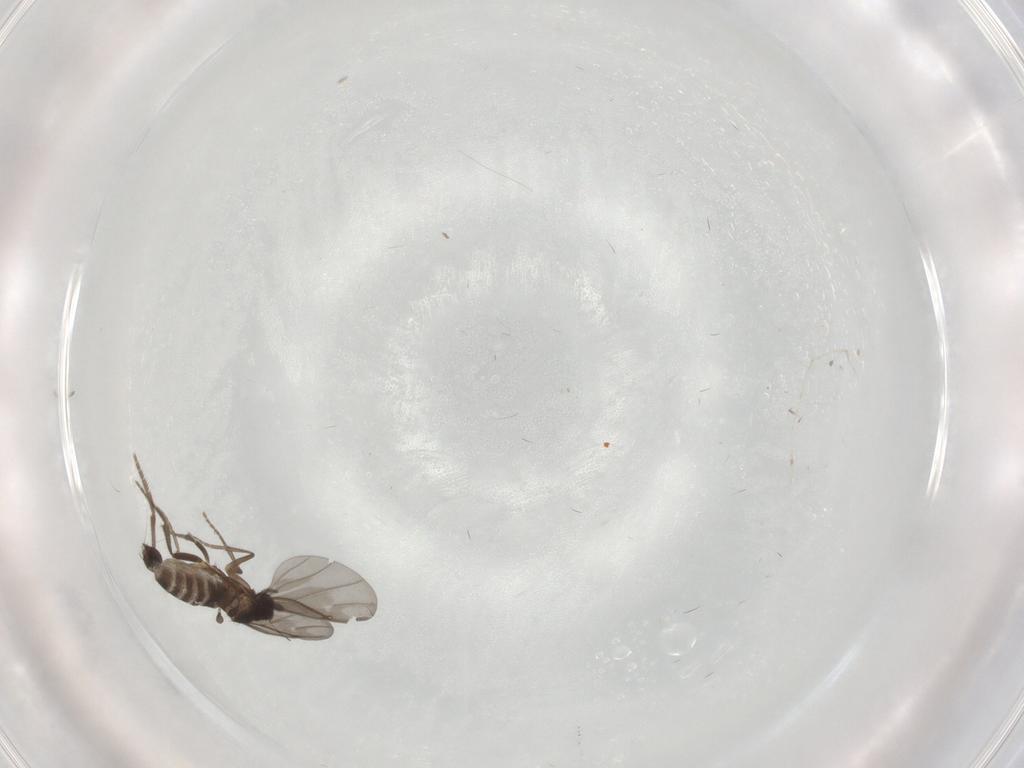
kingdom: Animalia
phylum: Arthropoda
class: Insecta
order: Diptera
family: Phoridae
